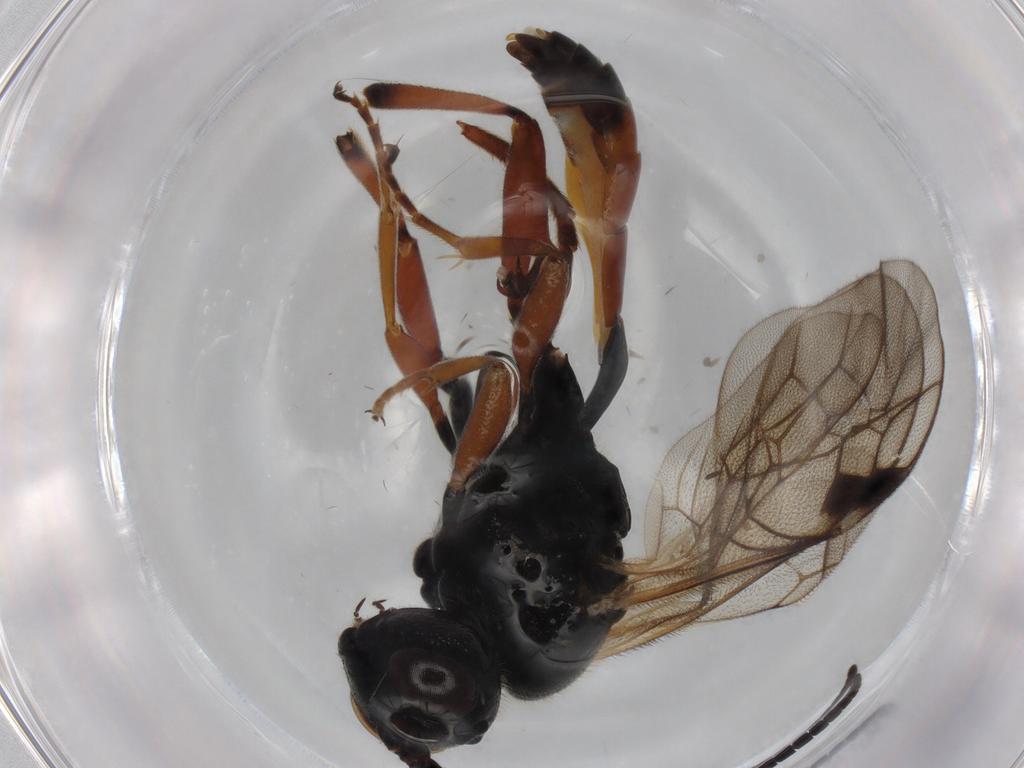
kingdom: Animalia
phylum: Arthropoda
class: Insecta
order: Hymenoptera
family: Ichneumonidae
